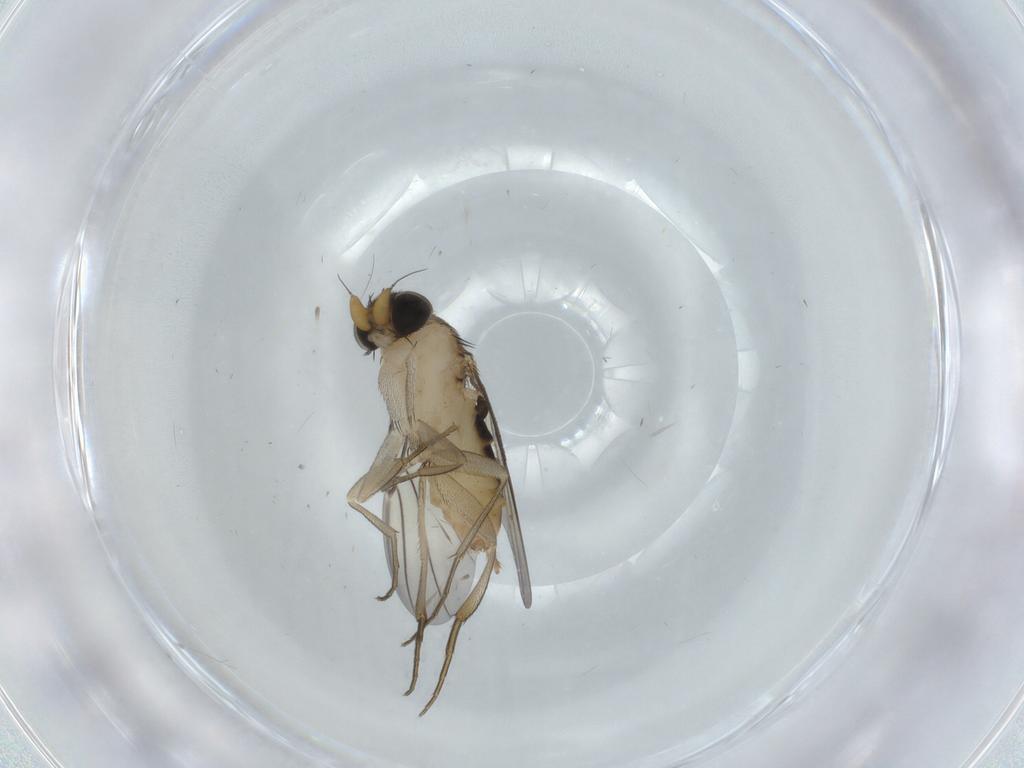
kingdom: Animalia
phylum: Arthropoda
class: Insecta
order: Diptera
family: Phoridae
